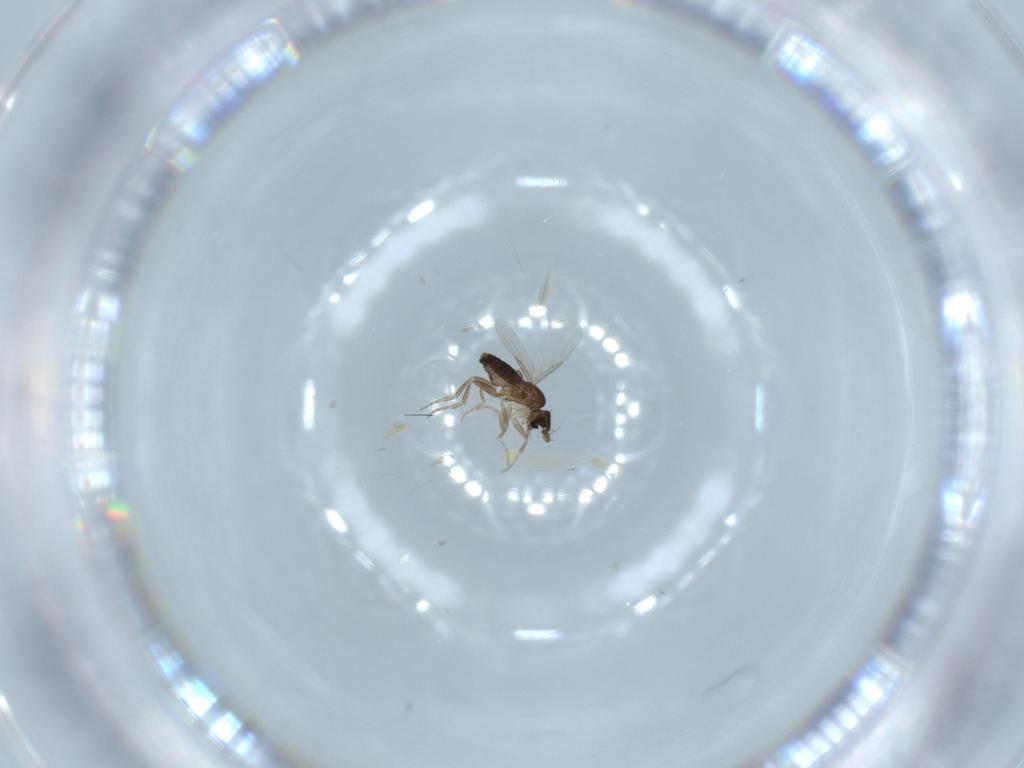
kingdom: Animalia
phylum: Arthropoda
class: Insecta
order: Diptera
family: Phoridae
